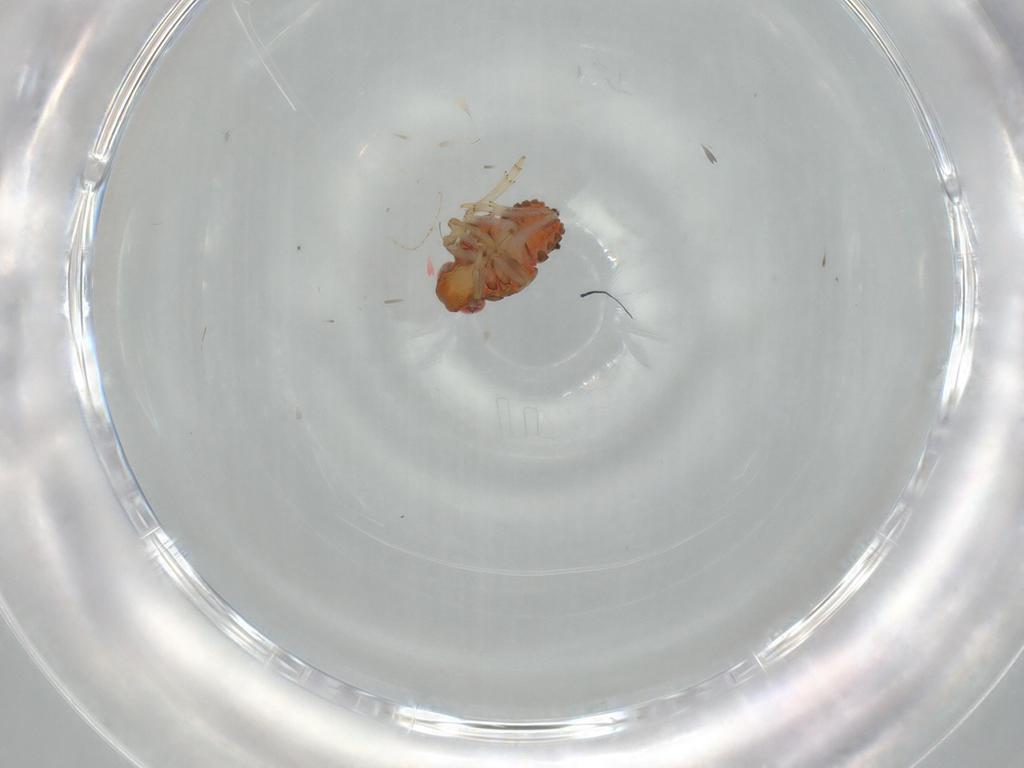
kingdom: Animalia
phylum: Arthropoda
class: Insecta
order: Hemiptera
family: Issidae
